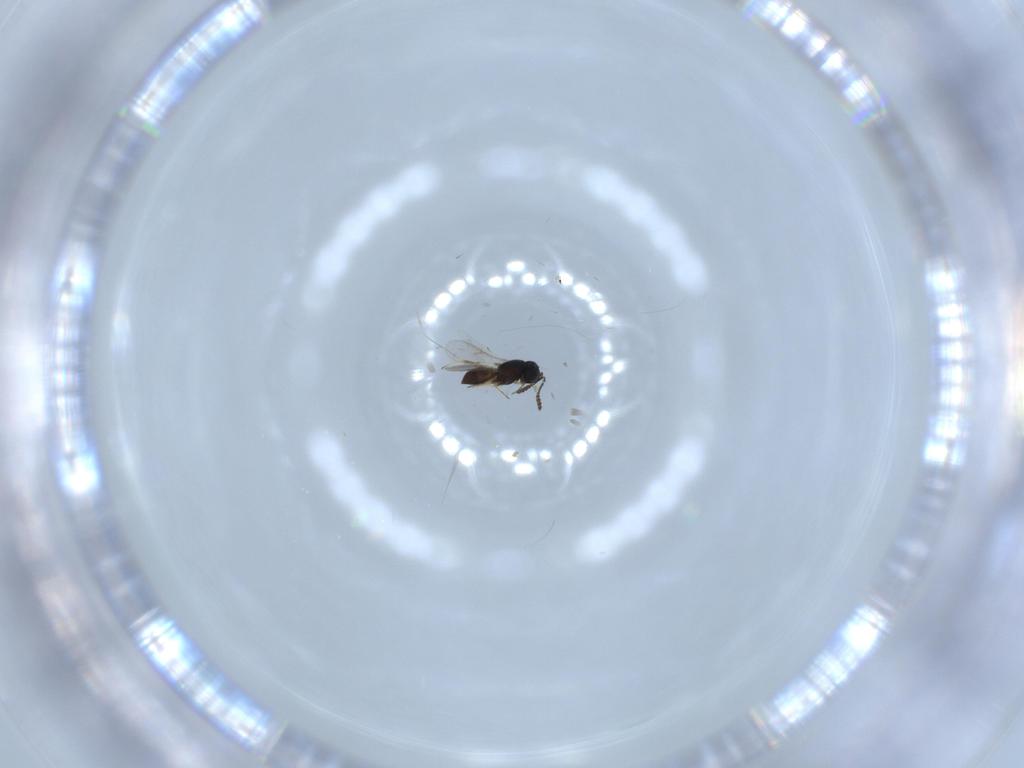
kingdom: Animalia
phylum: Arthropoda
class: Insecta
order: Hymenoptera
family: Scelionidae
